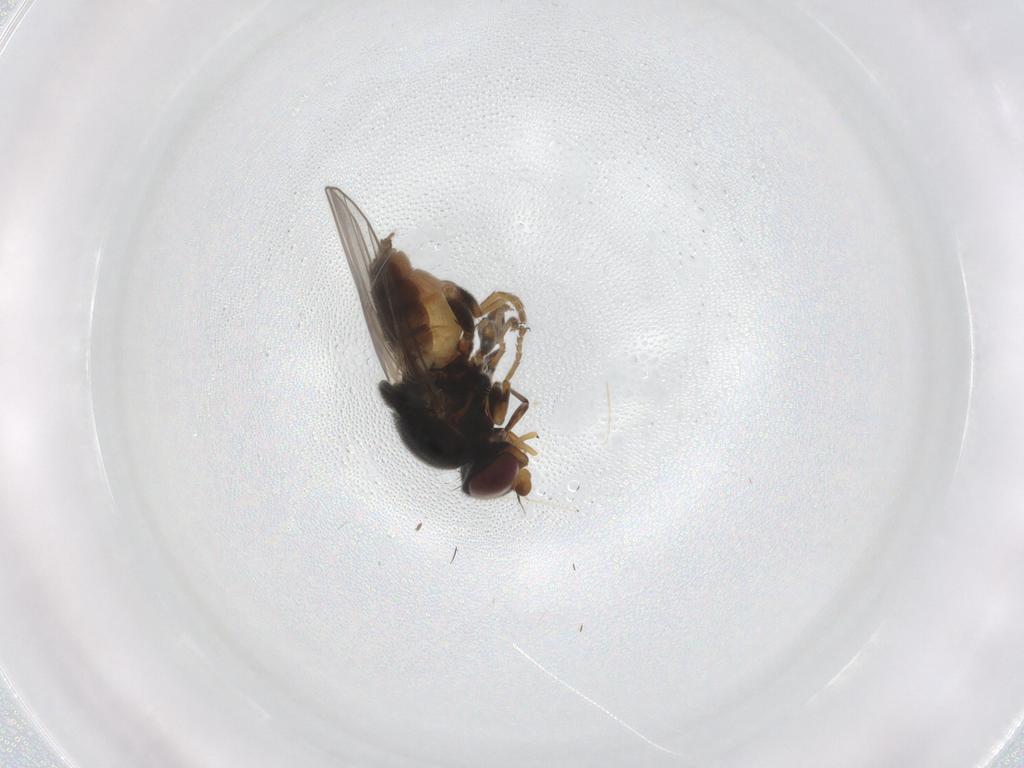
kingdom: Animalia
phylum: Arthropoda
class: Insecta
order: Diptera
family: Chloropidae
